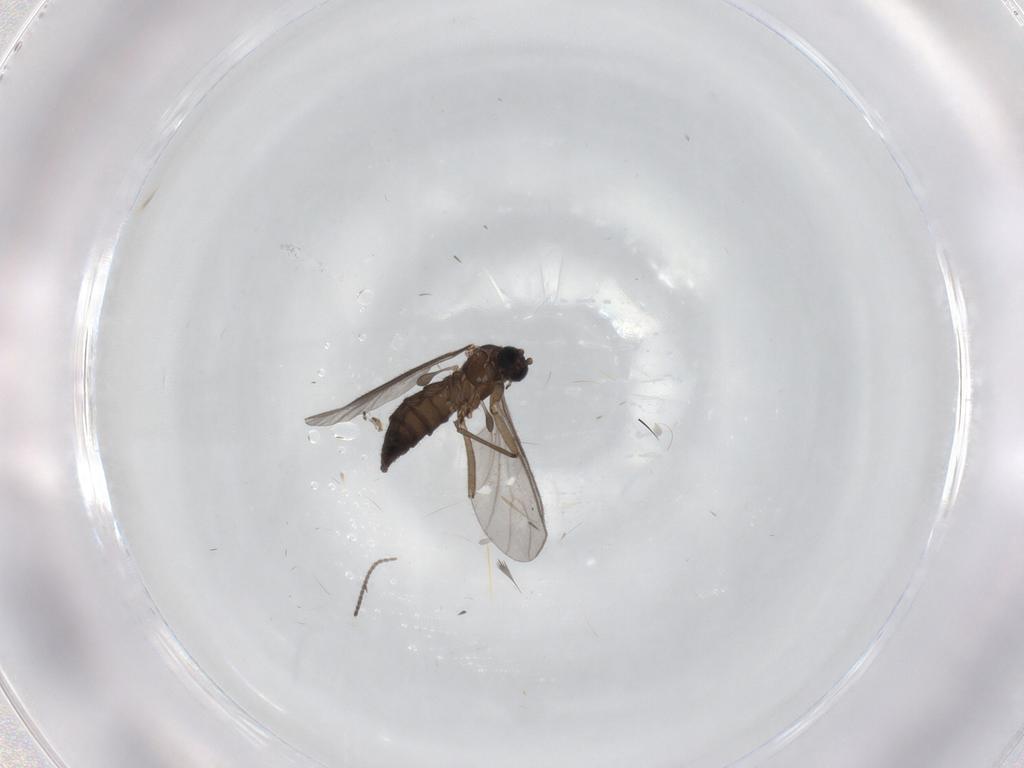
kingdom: Animalia
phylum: Arthropoda
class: Insecta
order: Diptera
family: Sciaridae
